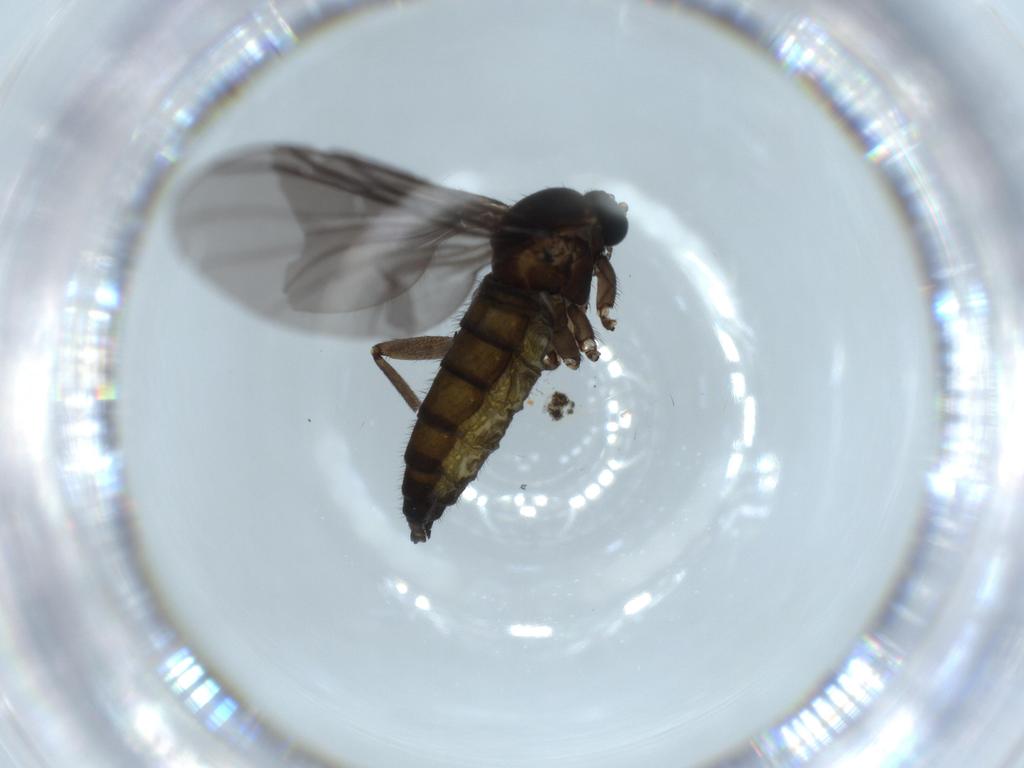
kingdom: Animalia
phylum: Arthropoda
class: Insecta
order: Diptera
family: Sciaridae
